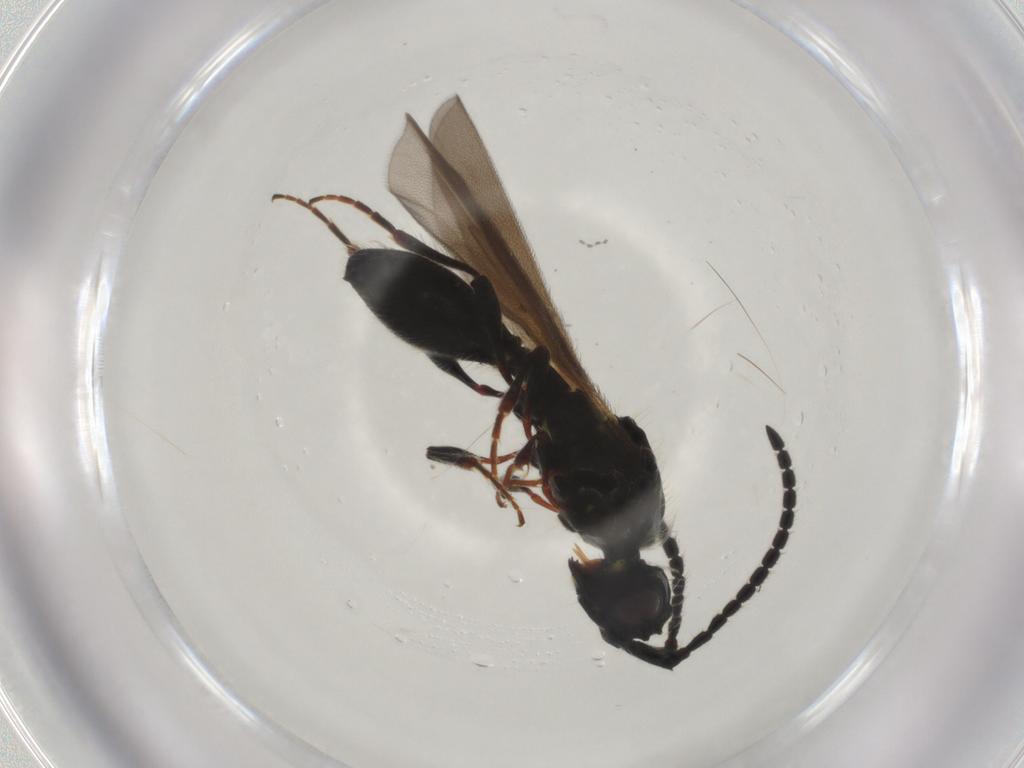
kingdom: Animalia
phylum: Arthropoda
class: Insecta
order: Hymenoptera
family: Diapriidae
